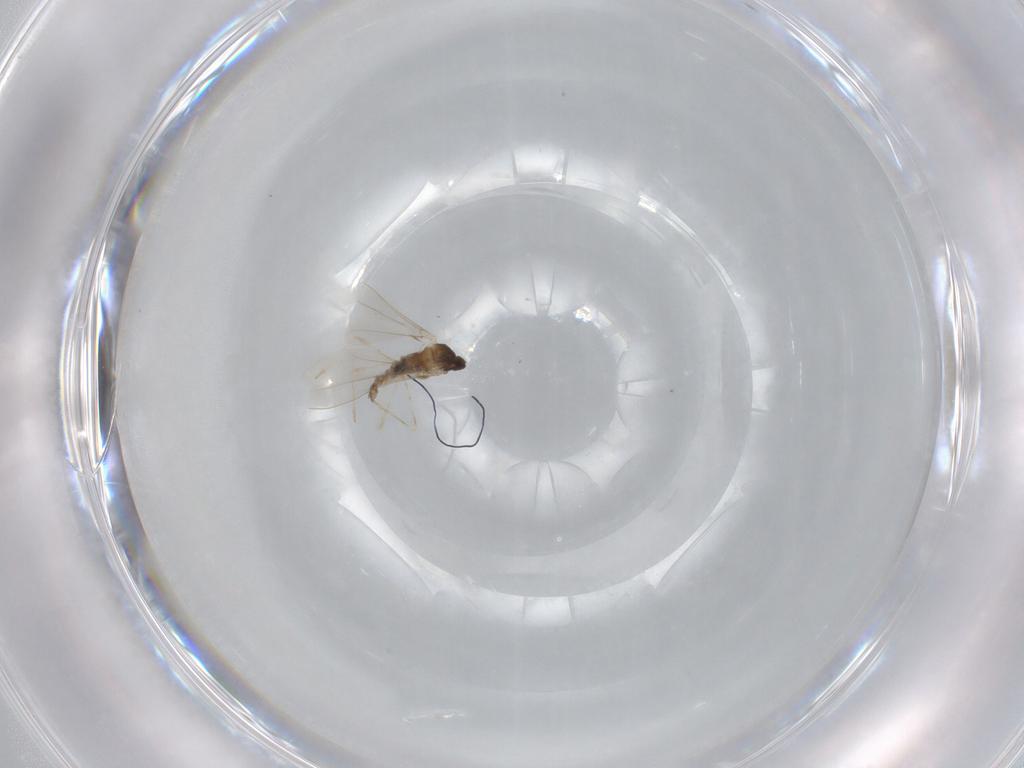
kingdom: Animalia
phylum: Arthropoda
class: Insecta
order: Diptera
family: Cecidomyiidae
